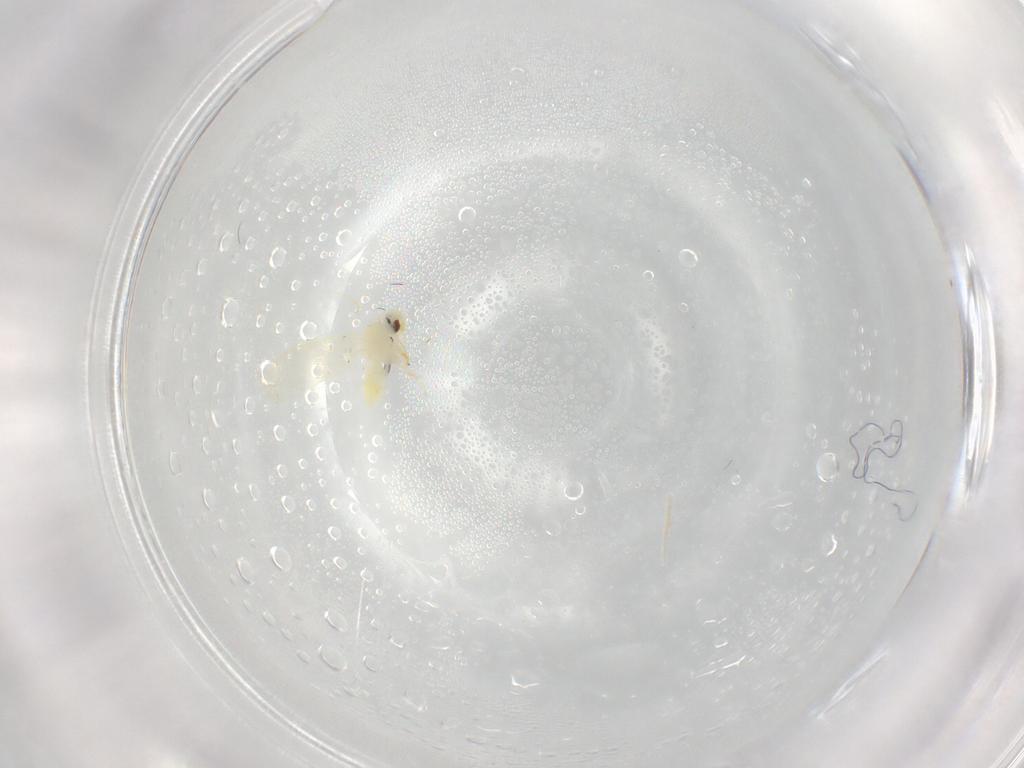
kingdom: Animalia
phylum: Arthropoda
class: Insecta
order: Hemiptera
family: Aleyrodidae
